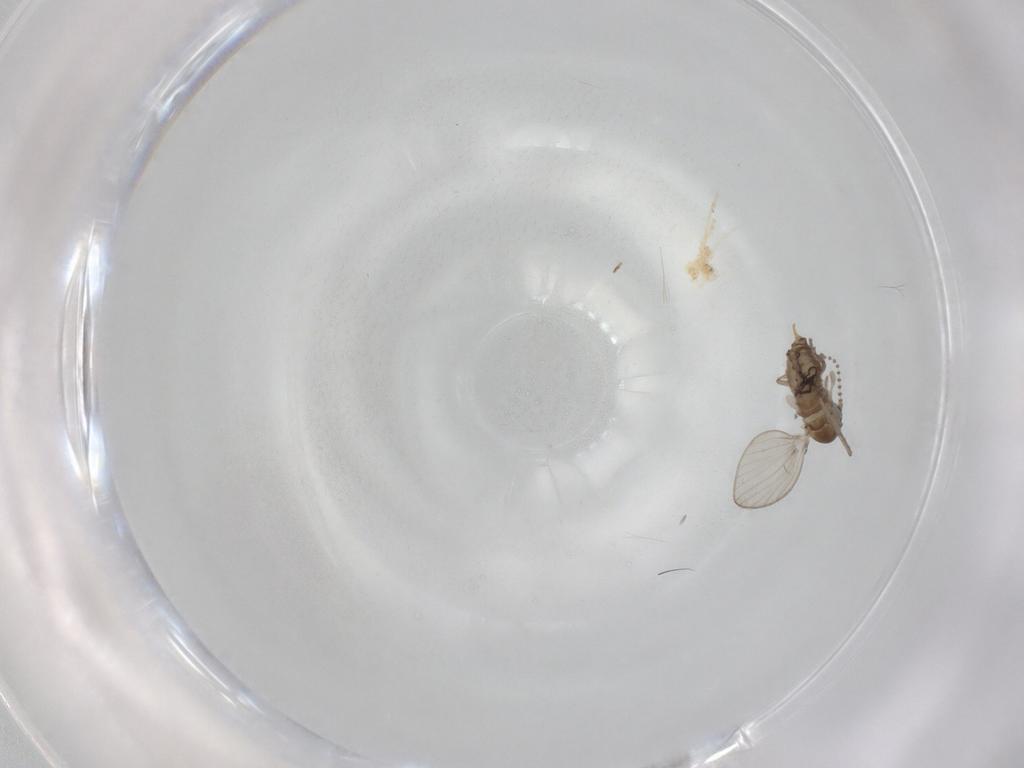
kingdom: Animalia
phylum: Arthropoda
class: Insecta
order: Diptera
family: Psychodidae
